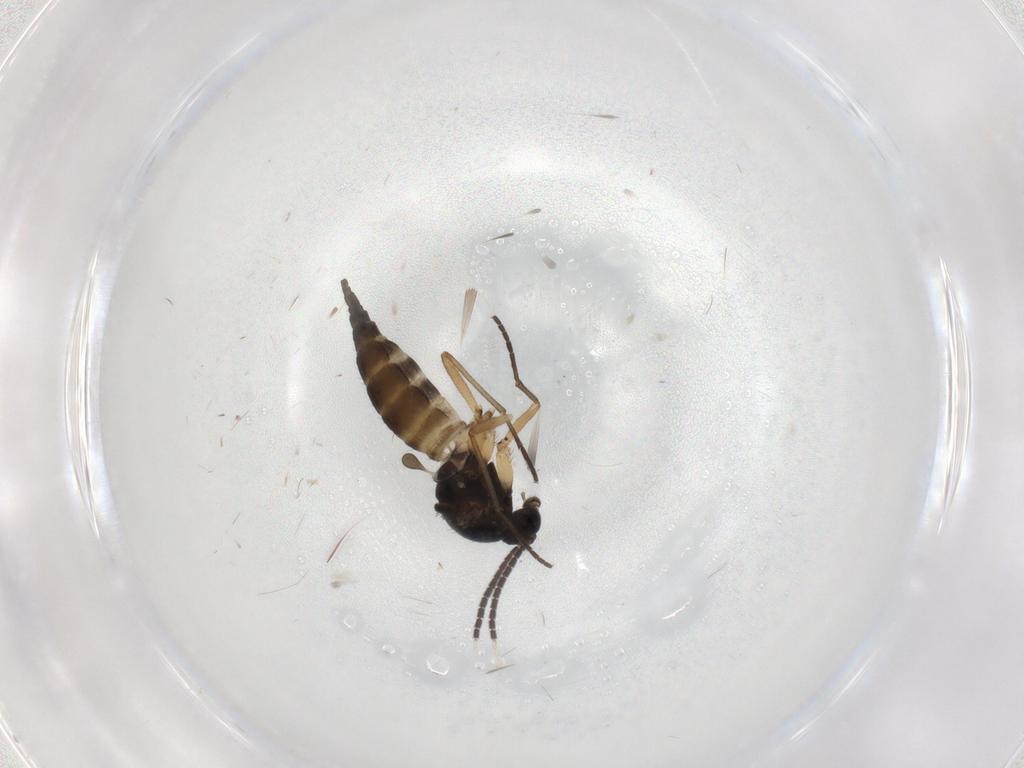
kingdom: Animalia
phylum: Arthropoda
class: Insecta
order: Diptera
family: Sciaridae
